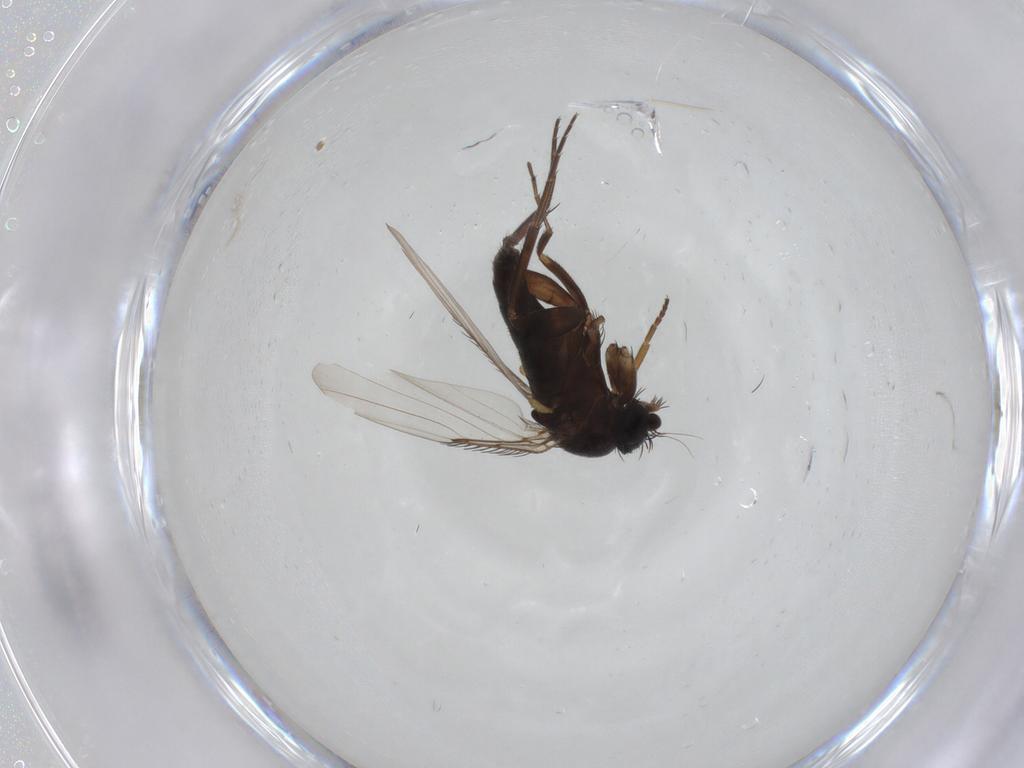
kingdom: Animalia
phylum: Arthropoda
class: Insecta
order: Diptera
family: Phoridae
